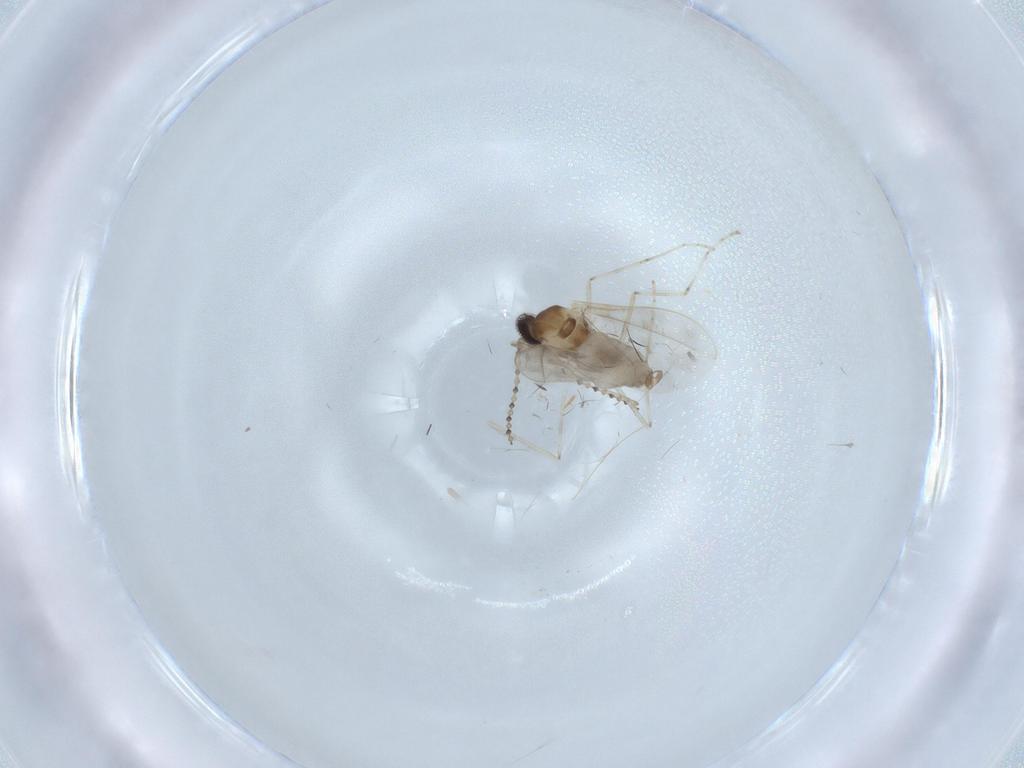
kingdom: Animalia
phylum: Arthropoda
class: Insecta
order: Diptera
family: Cecidomyiidae
